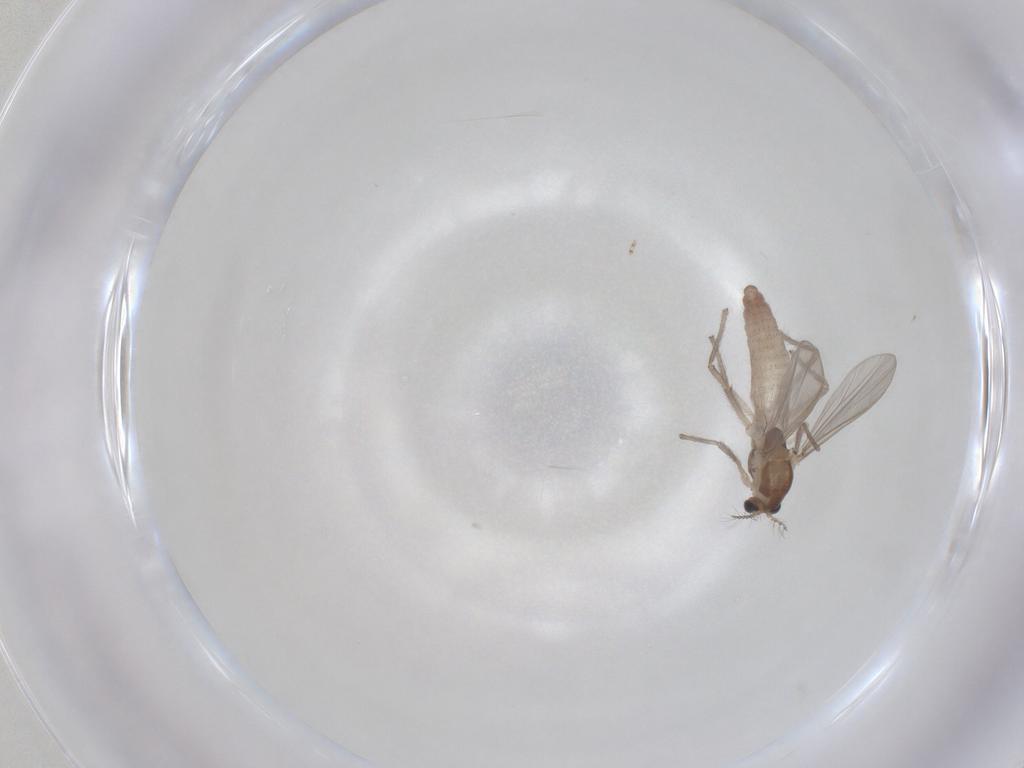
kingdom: Animalia
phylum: Arthropoda
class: Insecta
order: Diptera
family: Chironomidae
